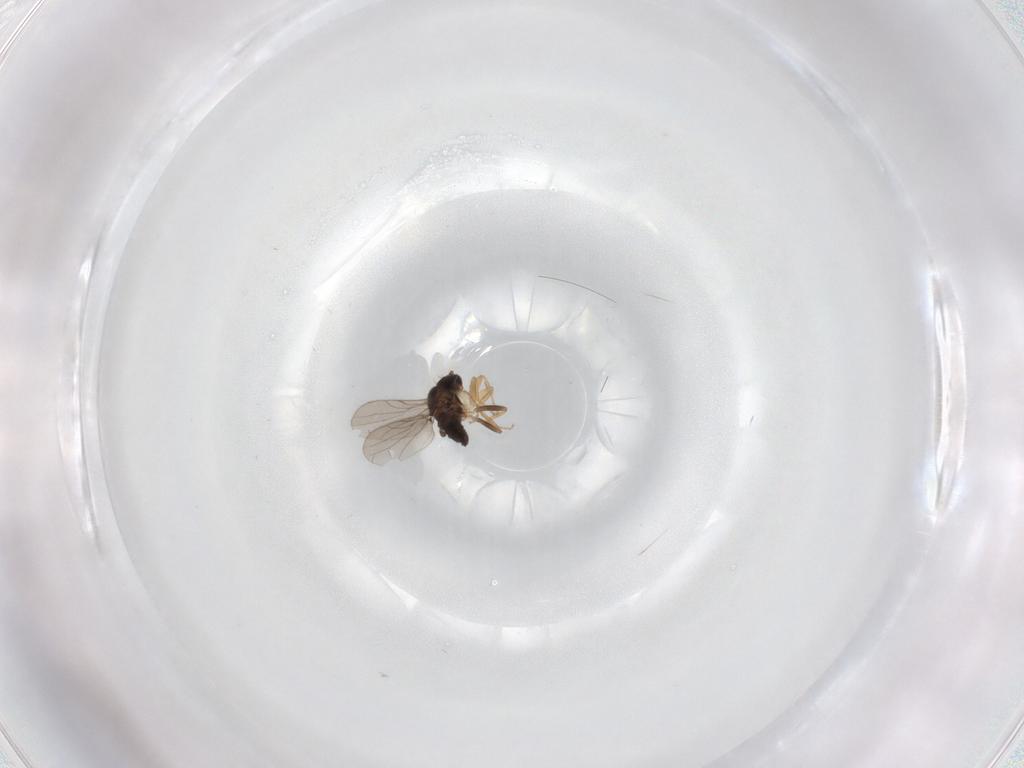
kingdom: Animalia
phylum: Arthropoda
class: Insecta
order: Diptera
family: Hybotidae
